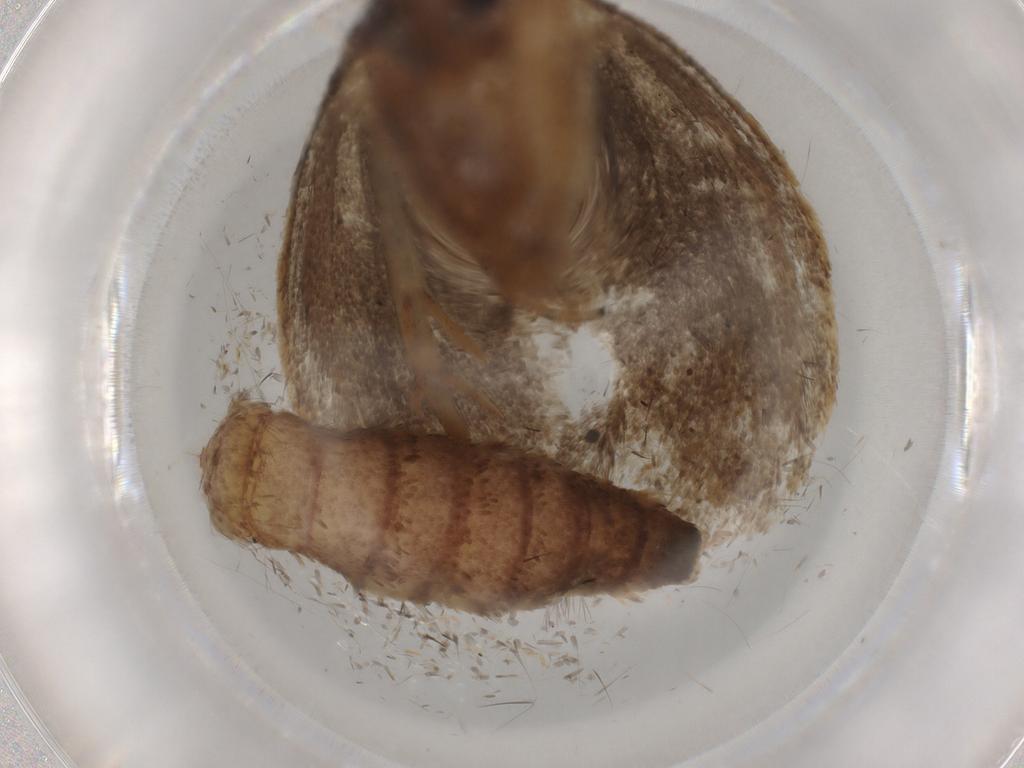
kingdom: Animalia
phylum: Arthropoda
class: Insecta
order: Lepidoptera
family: Tineidae
